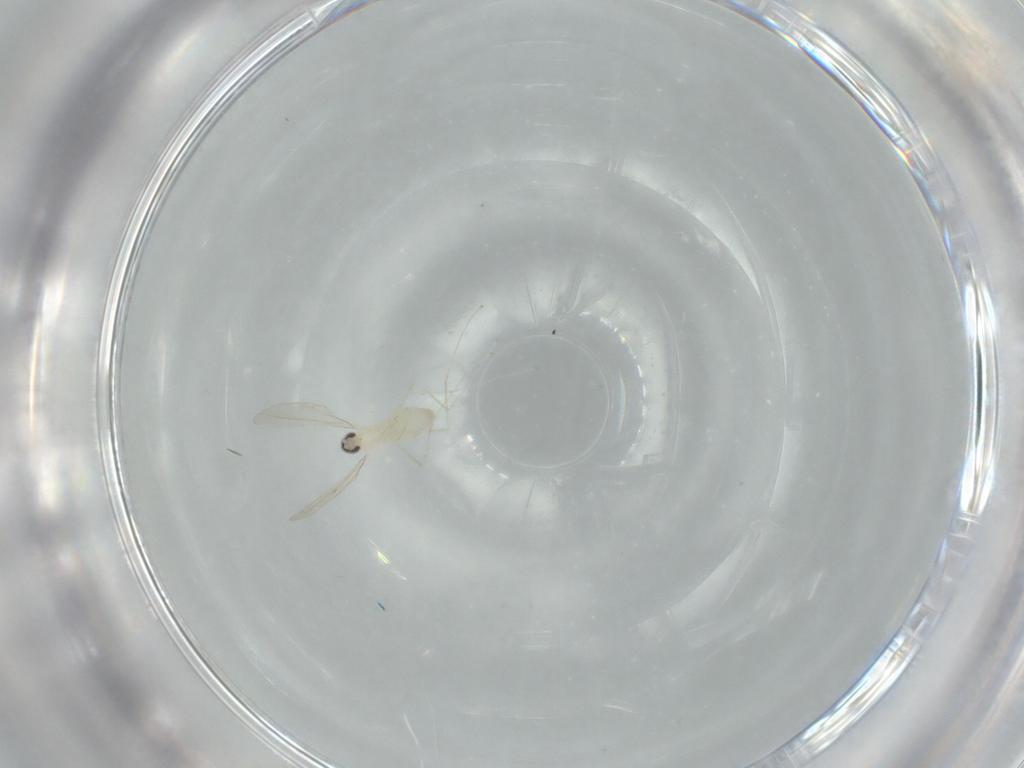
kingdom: Animalia
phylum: Arthropoda
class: Insecta
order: Diptera
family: Cecidomyiidae
